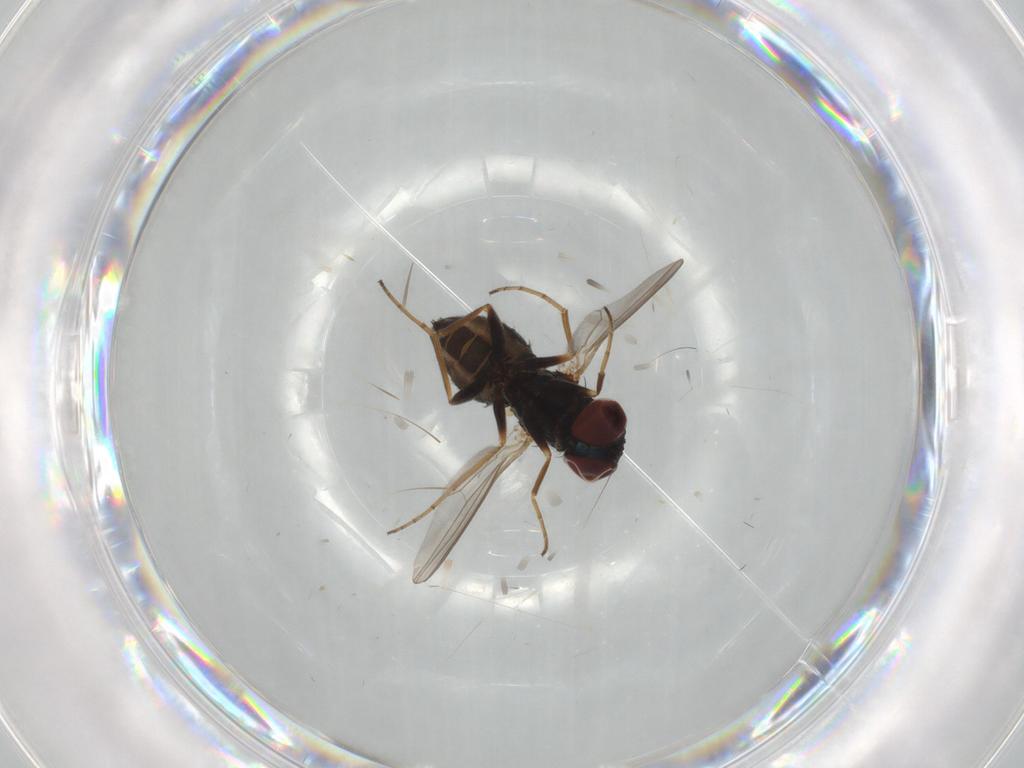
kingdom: Animalia
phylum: Arthropoda
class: Insecta
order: Diptera
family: Dolichopodidae
